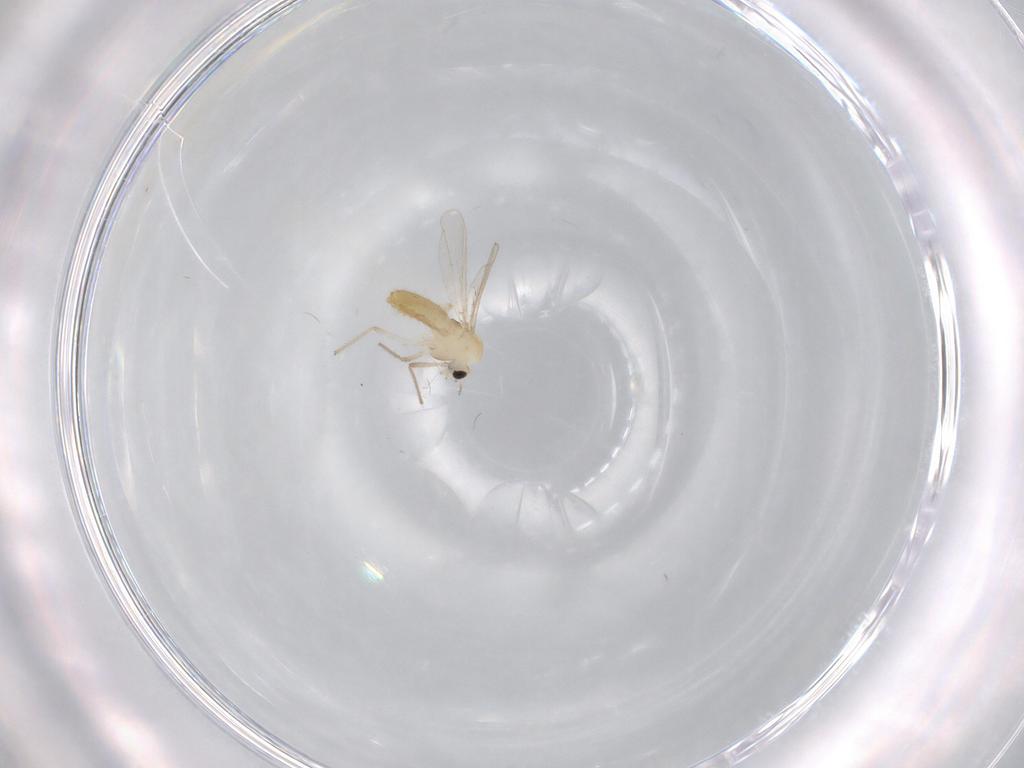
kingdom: Animalia
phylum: Arthropoda
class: Insecta
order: Diptera
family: Chironomidae
